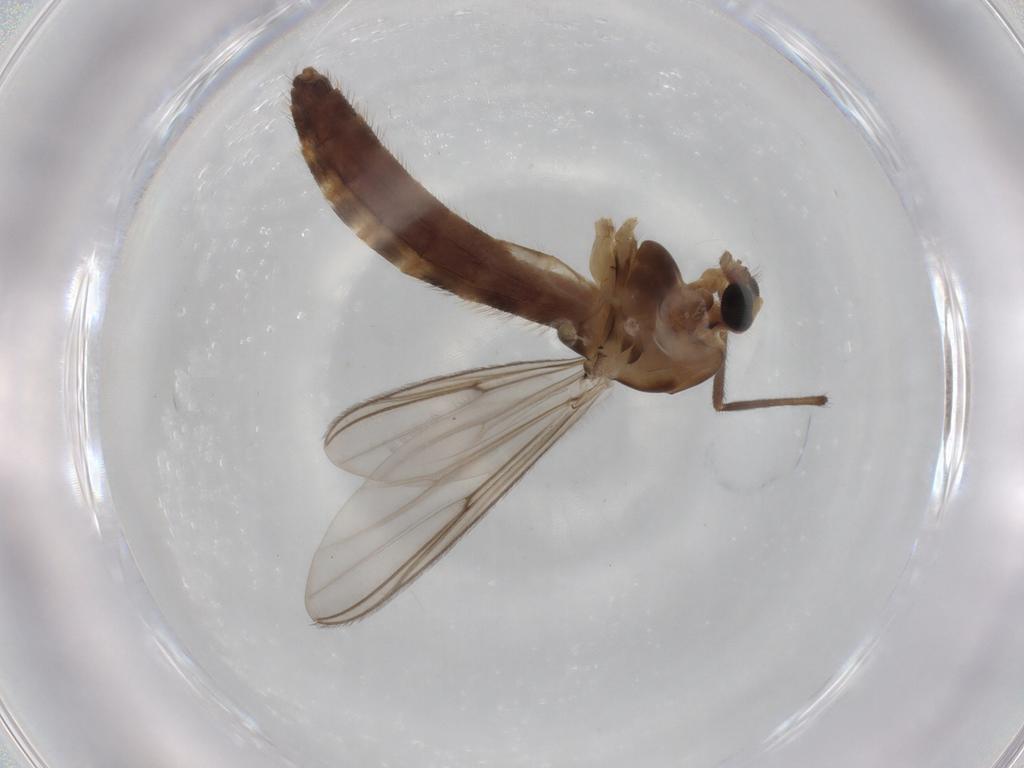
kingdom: Animalia
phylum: Arthropoda
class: Insecta
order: Diptera
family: Chironomidae
